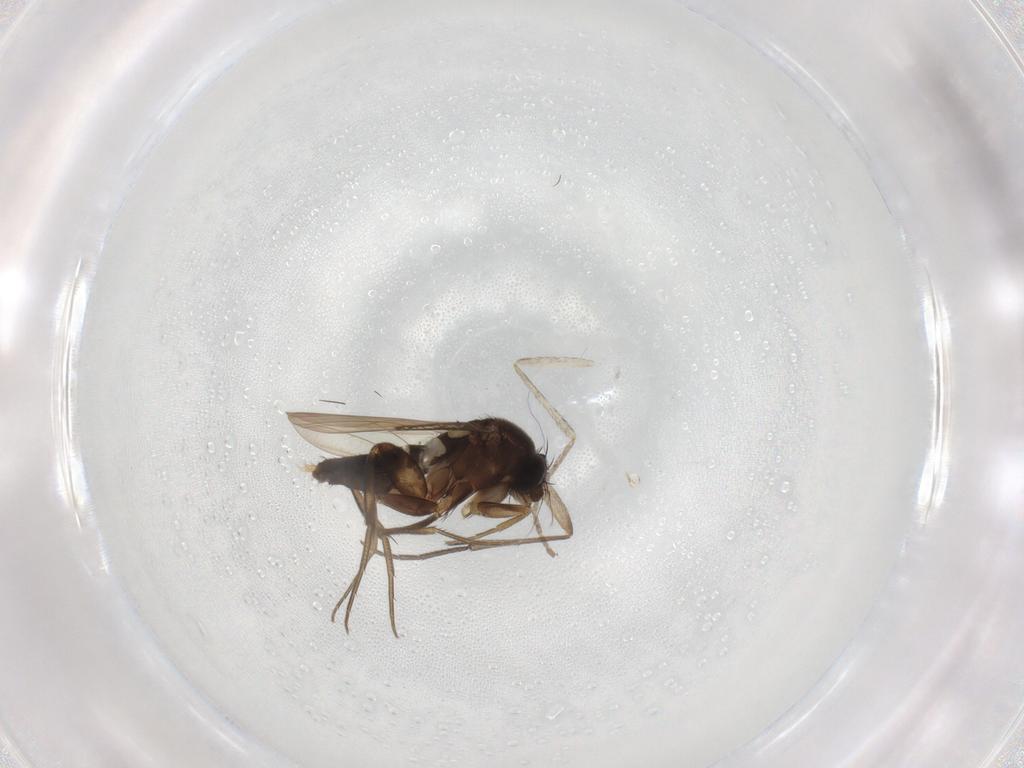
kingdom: Animalia
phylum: Arthropoda
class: Insecta
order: Diptera
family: Phoridae
